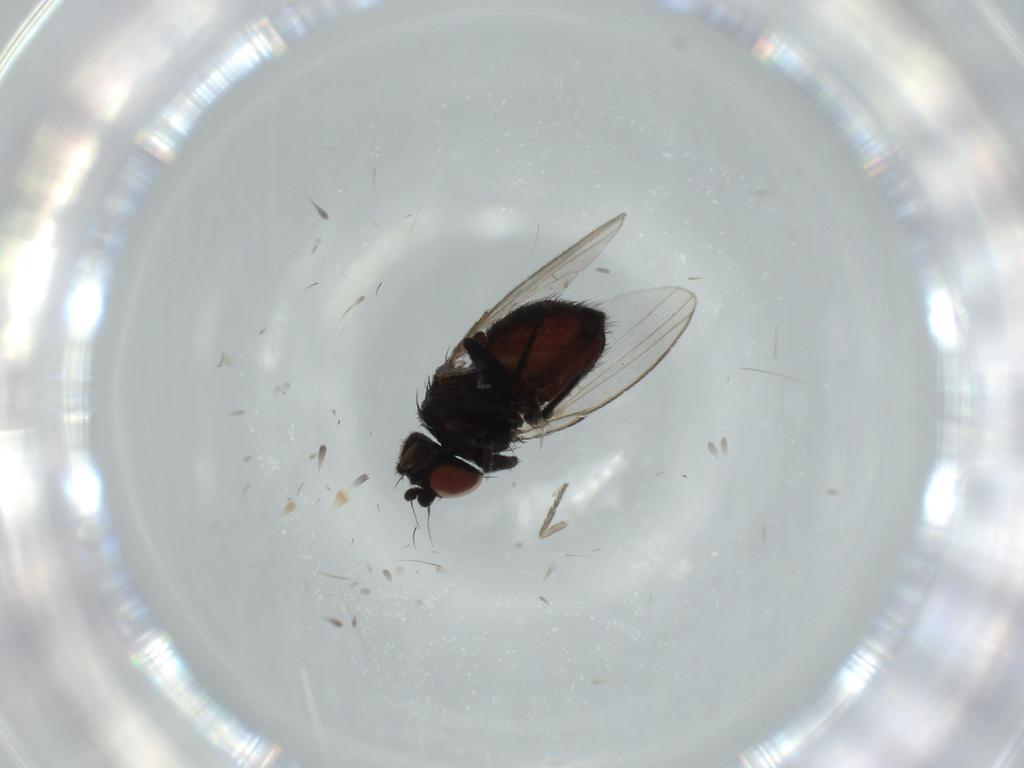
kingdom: Animalia
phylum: Arthropoda
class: Insecta
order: Diptera
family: Milichiidae
